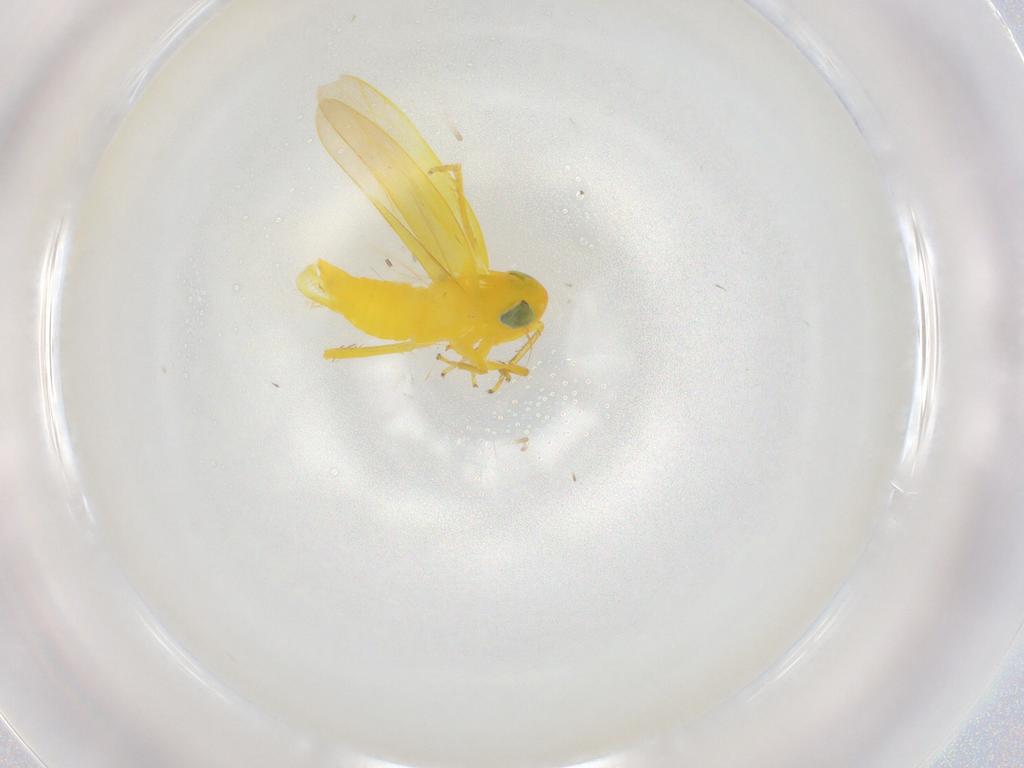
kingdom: Animalia
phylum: Arthropoda
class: Insecta
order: Hemiptera
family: Cicadellidae
